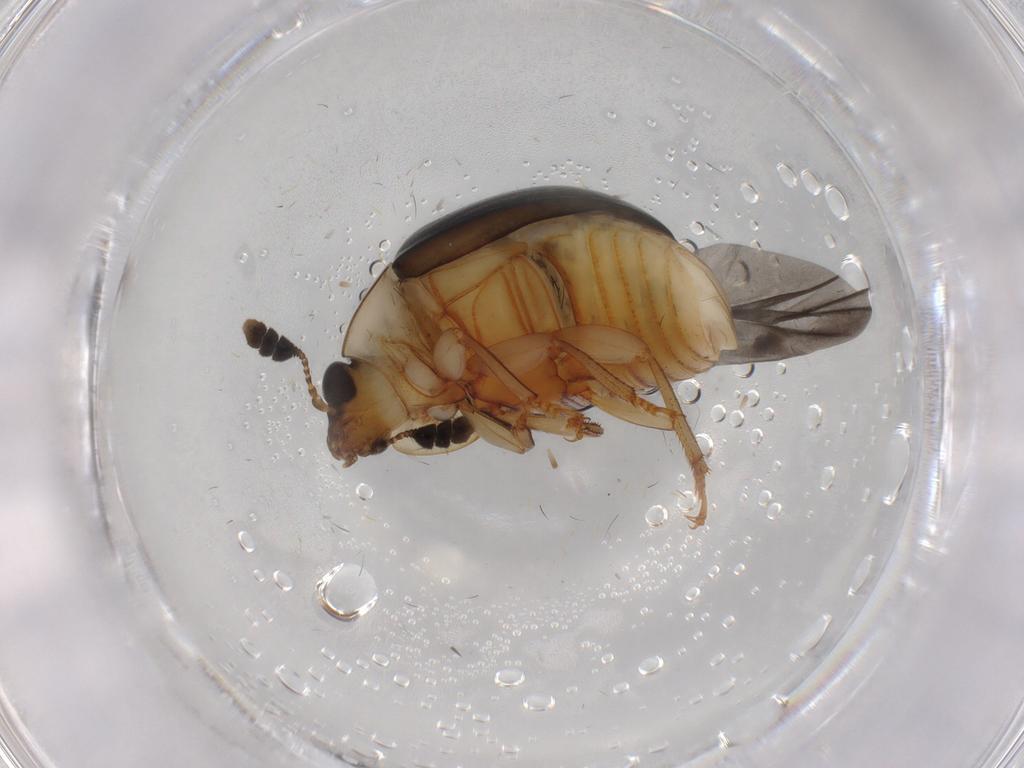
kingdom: Animalia
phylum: Arthropoda
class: Insecta
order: Coleoptera
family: Nitidulidae
